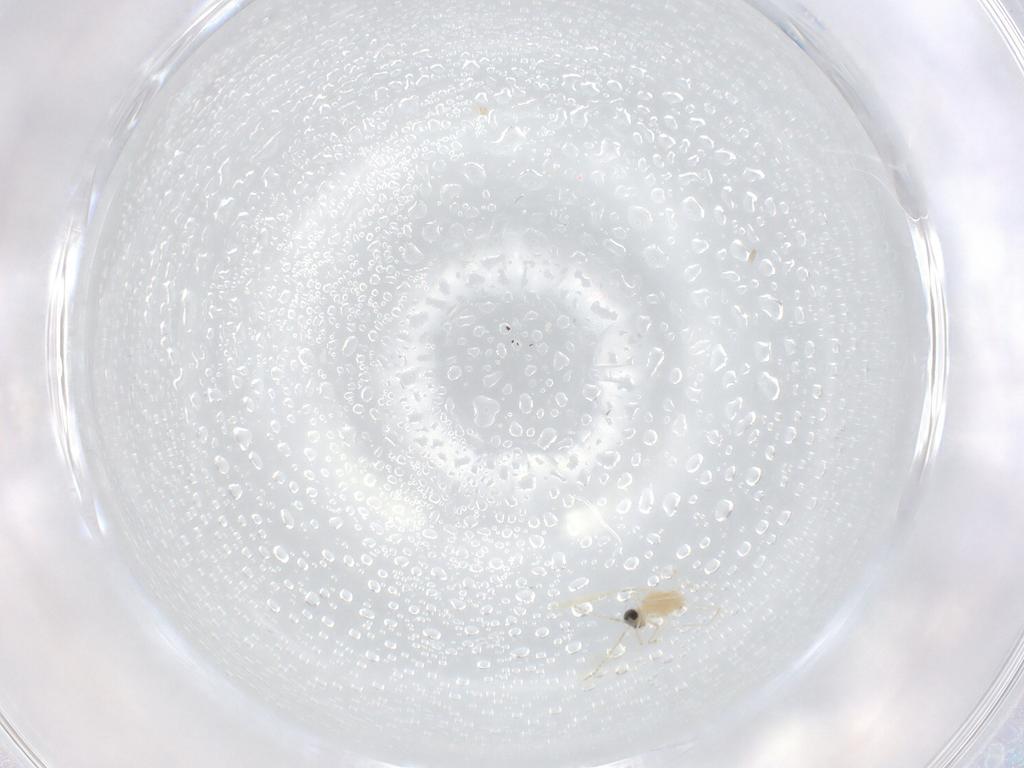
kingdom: Animalia
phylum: Arthropoda
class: Insecta
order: Diptera
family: Cecidomyiidae
